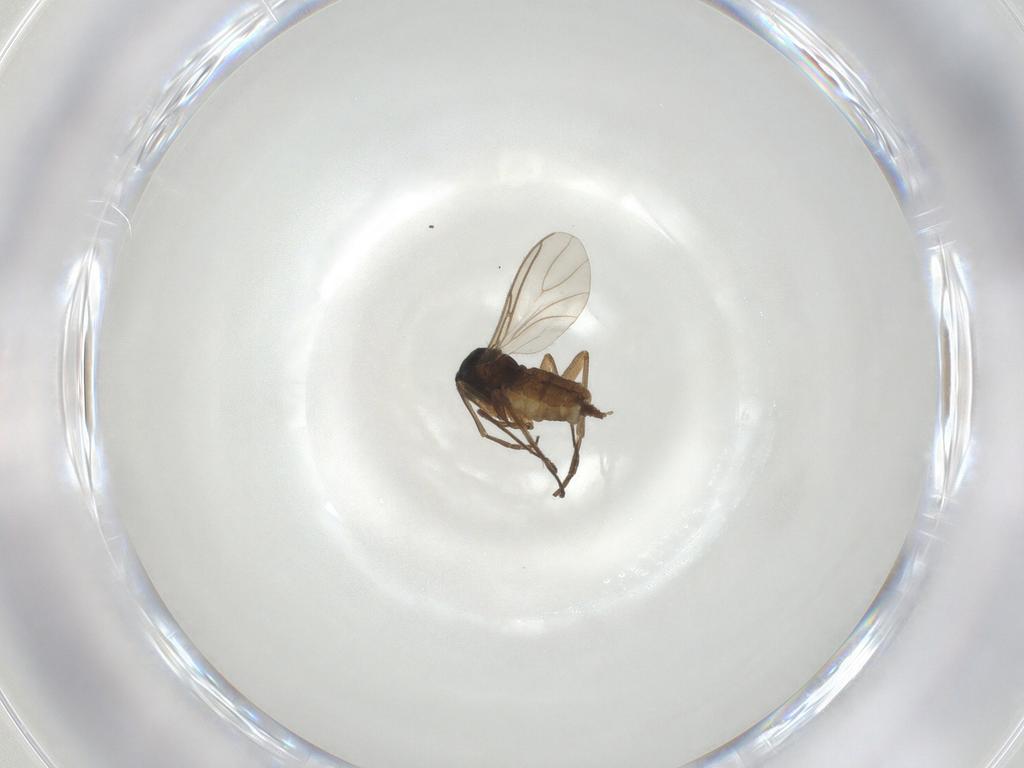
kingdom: Animalia
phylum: Arthropoda
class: Insecta
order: Diptera
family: Sciaridae
